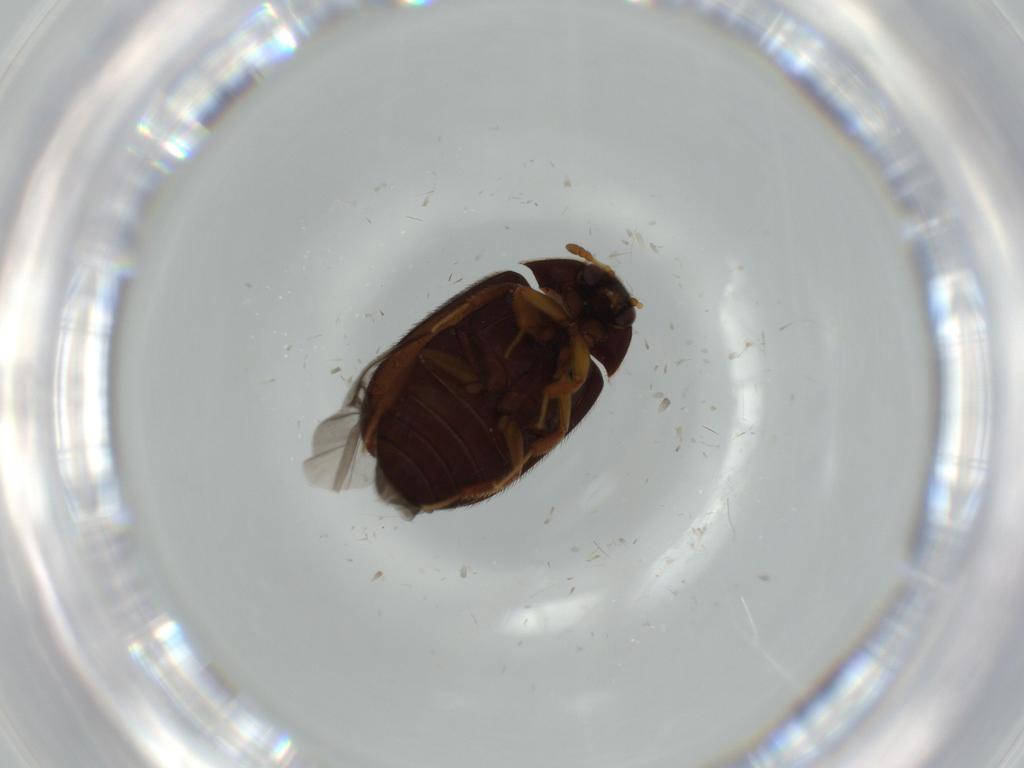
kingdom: Animalia
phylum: Arthropoda
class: Insecta
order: Coleoptera
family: Dermestidae
